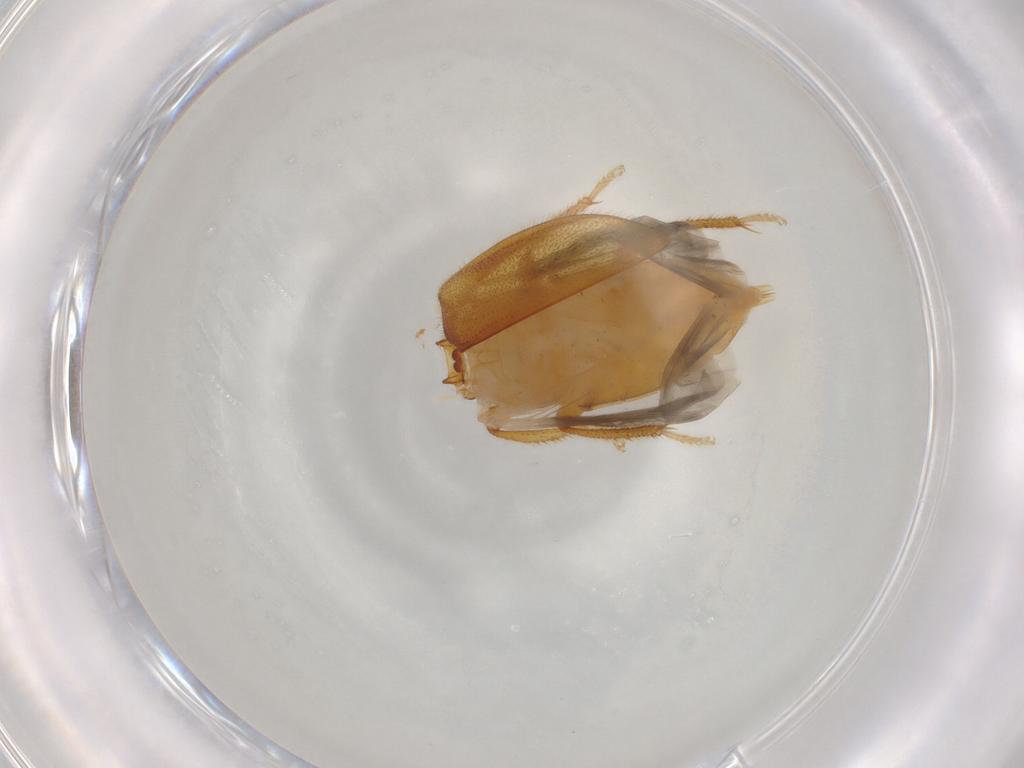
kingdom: Animalia
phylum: Arthropoda
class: Insecta
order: Coleoptera
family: Ptilodactylidae
